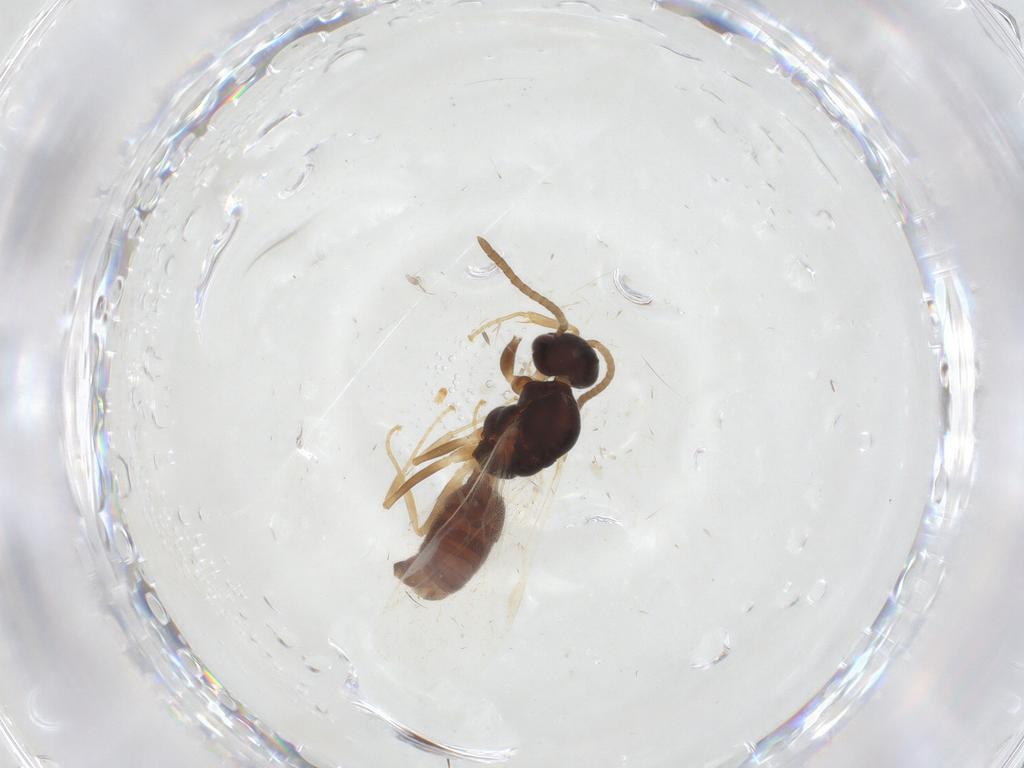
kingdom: Animalia
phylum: Arthropoda
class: Insecta
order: Hymenoptera
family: Formicidae
